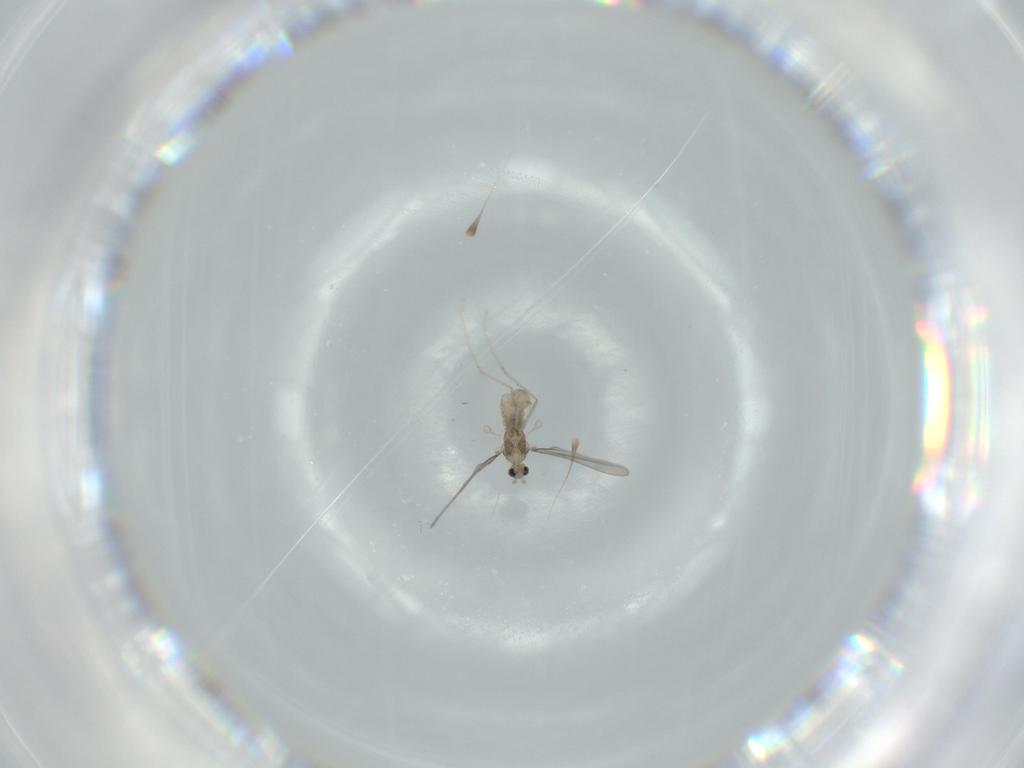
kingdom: Animalia
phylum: Arthropoda
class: Insecta
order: Diptera
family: Cecidomyiidae
